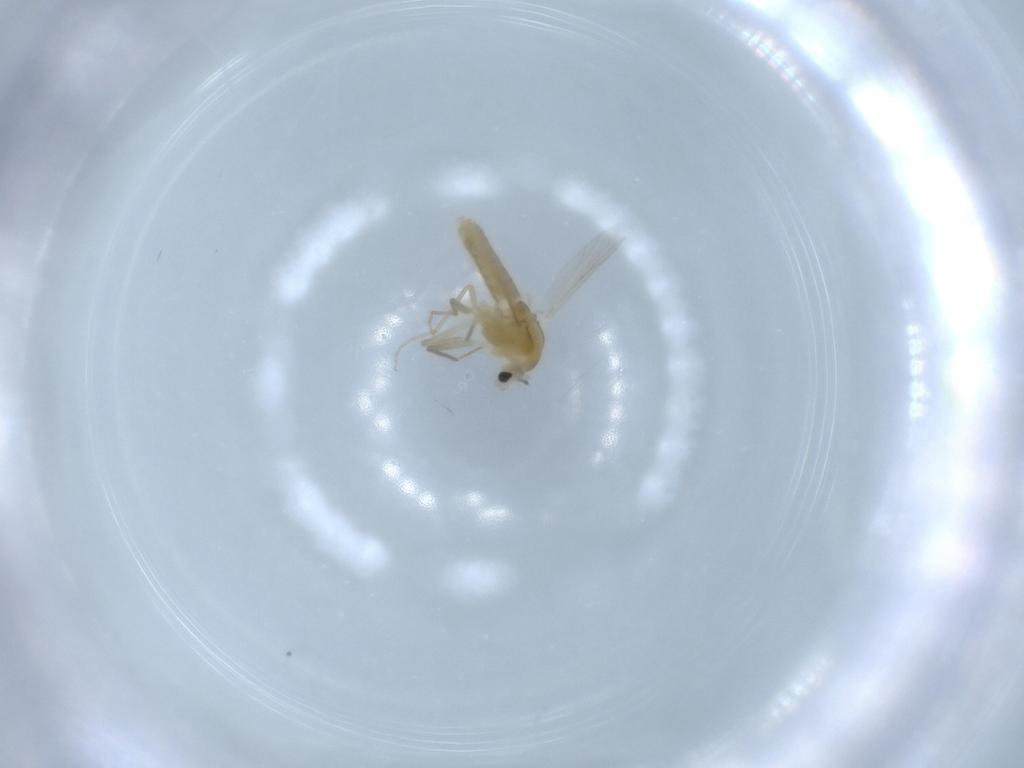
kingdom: Animalia
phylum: Arthropoda
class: Insecta
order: Diptera
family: Chironomidae
